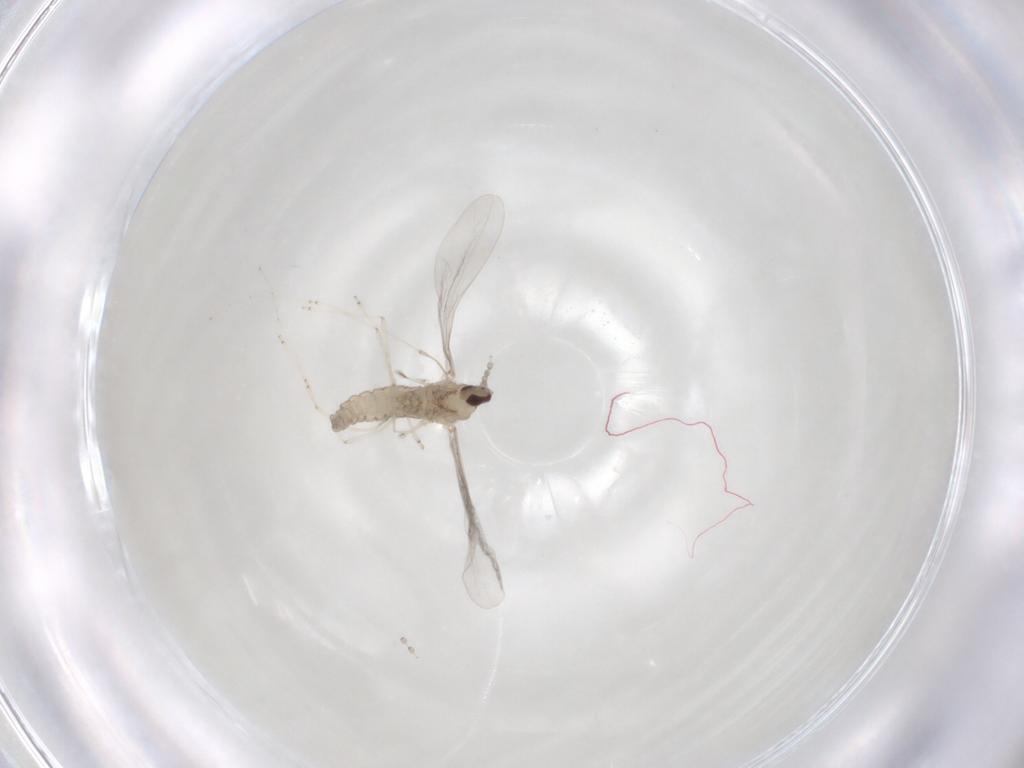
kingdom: Animalia
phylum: Arthropoda
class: Insecta
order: Diptera
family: Cecidomyiidae
